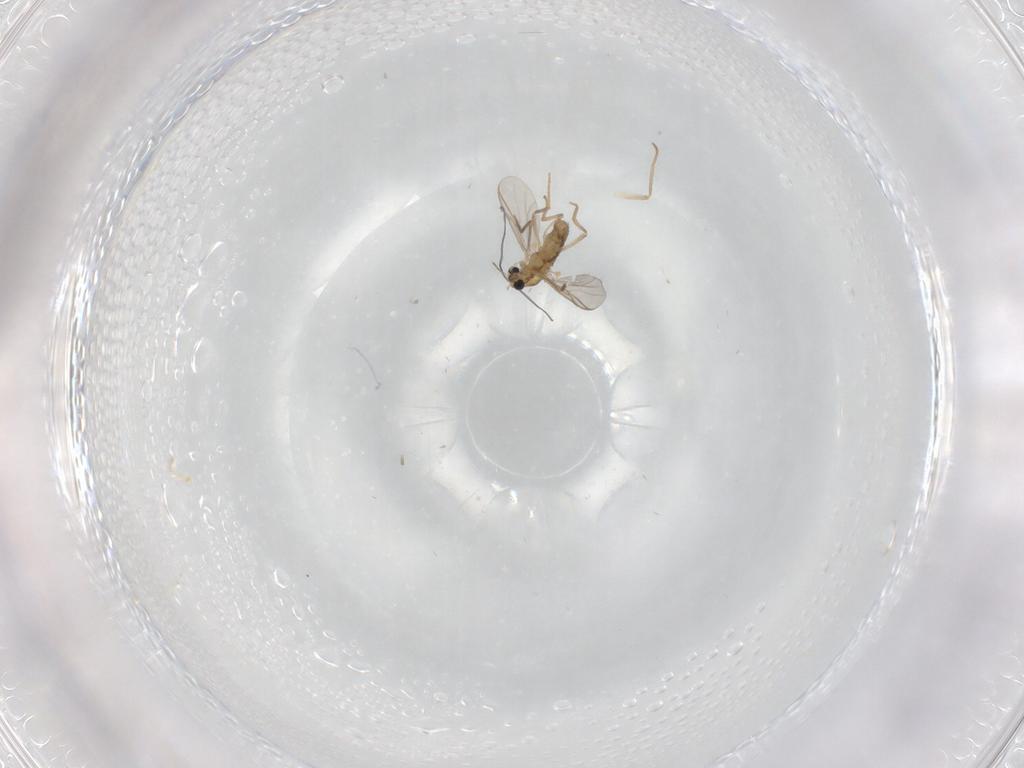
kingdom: Animalia
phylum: Arthropoda
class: Insecta
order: Diptera
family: Chironomidae
